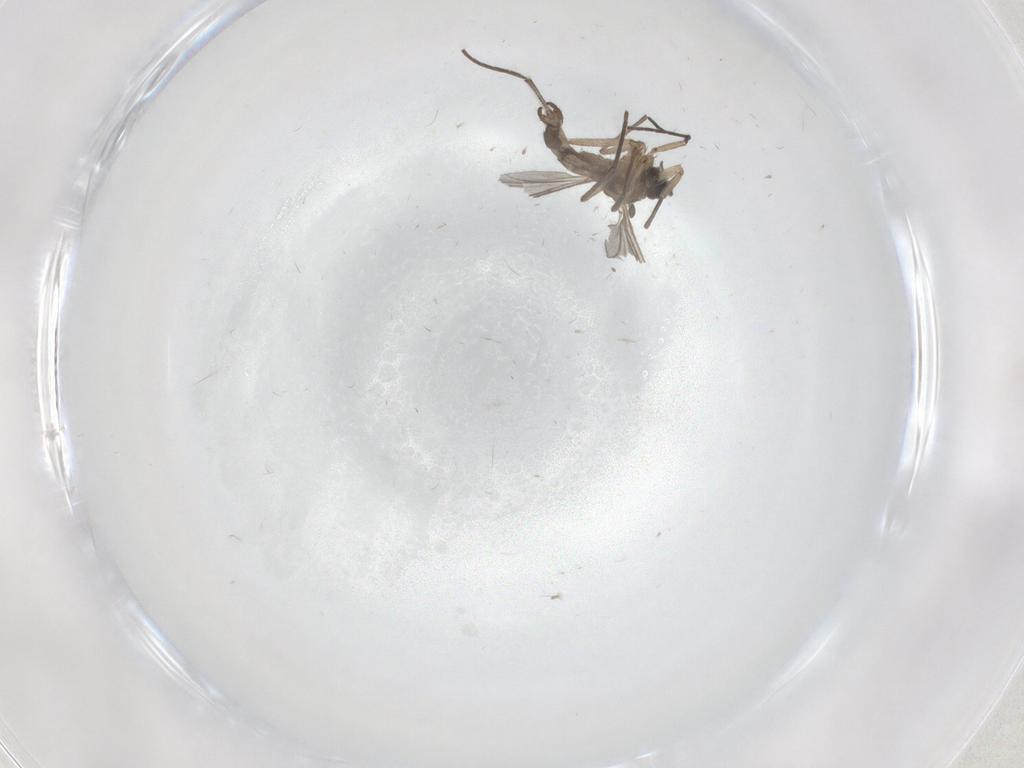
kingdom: Animalia
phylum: Arthropoda
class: Insecta
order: Diptera
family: Limoniidae
